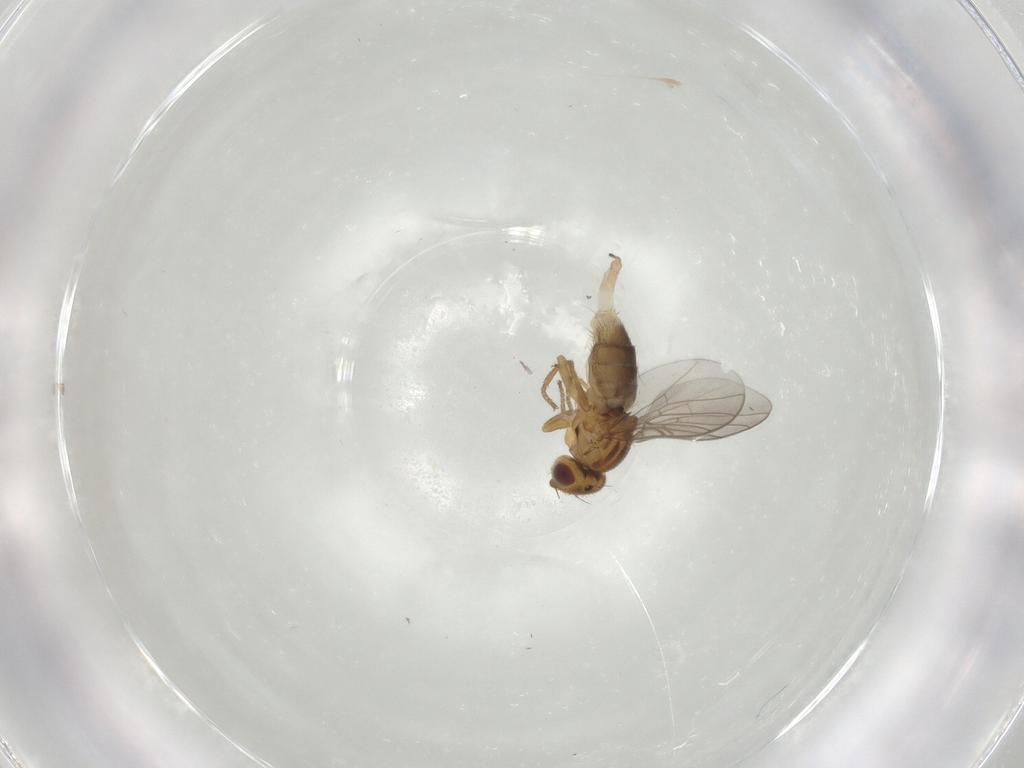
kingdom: Animalia
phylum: Arthropoda
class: Insecta
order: Diptera
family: Chloropidae
